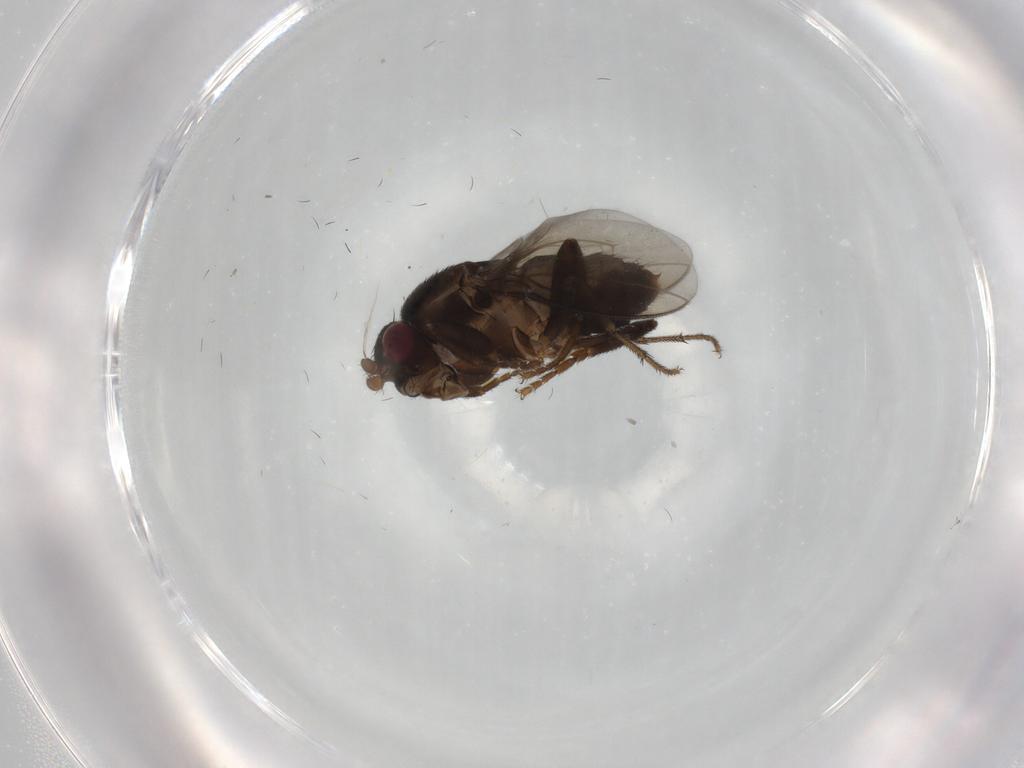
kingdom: Animalia
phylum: Arthropoda
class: Insecta
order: Diptera
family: Sphaeroceridae
